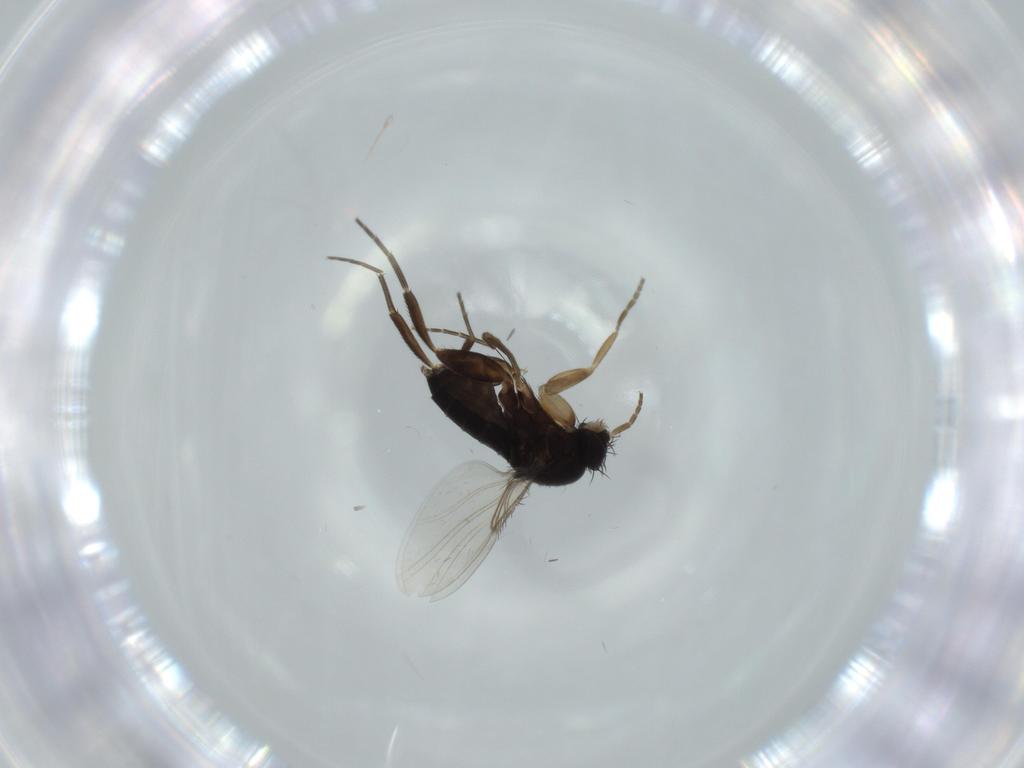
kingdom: Animalia
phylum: Arthropoda
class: Insecta
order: Diptera
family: Phoridae
